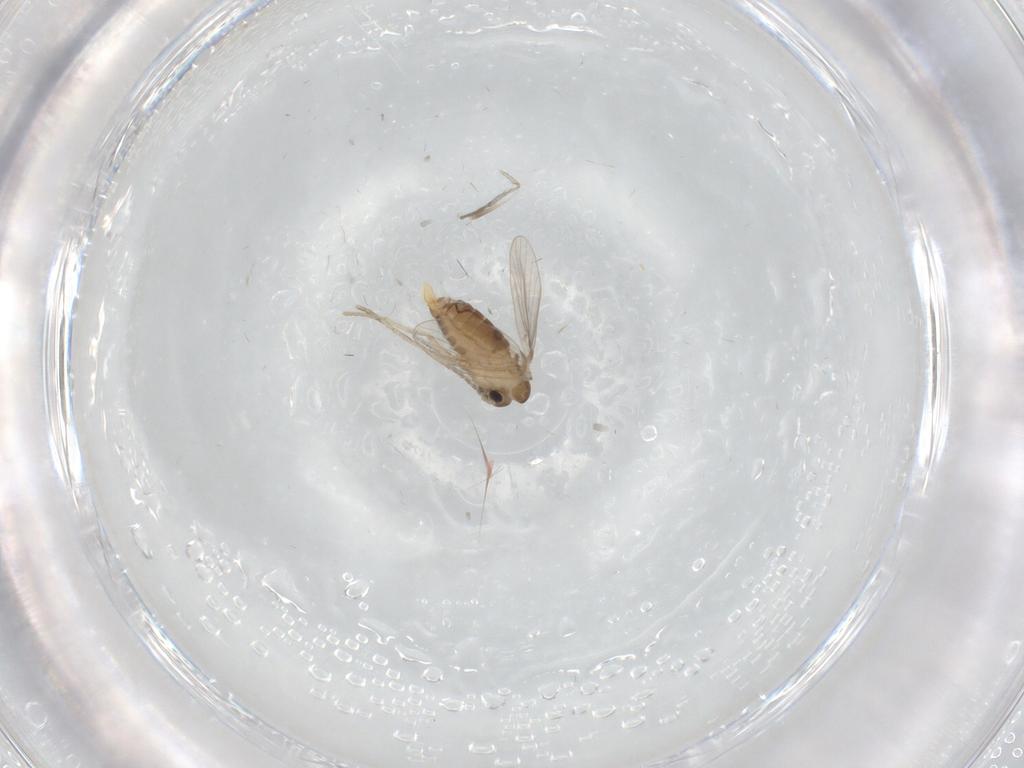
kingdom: Animalia
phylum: Arthropoda
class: Insecta
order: Diptera
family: Psychodidae
